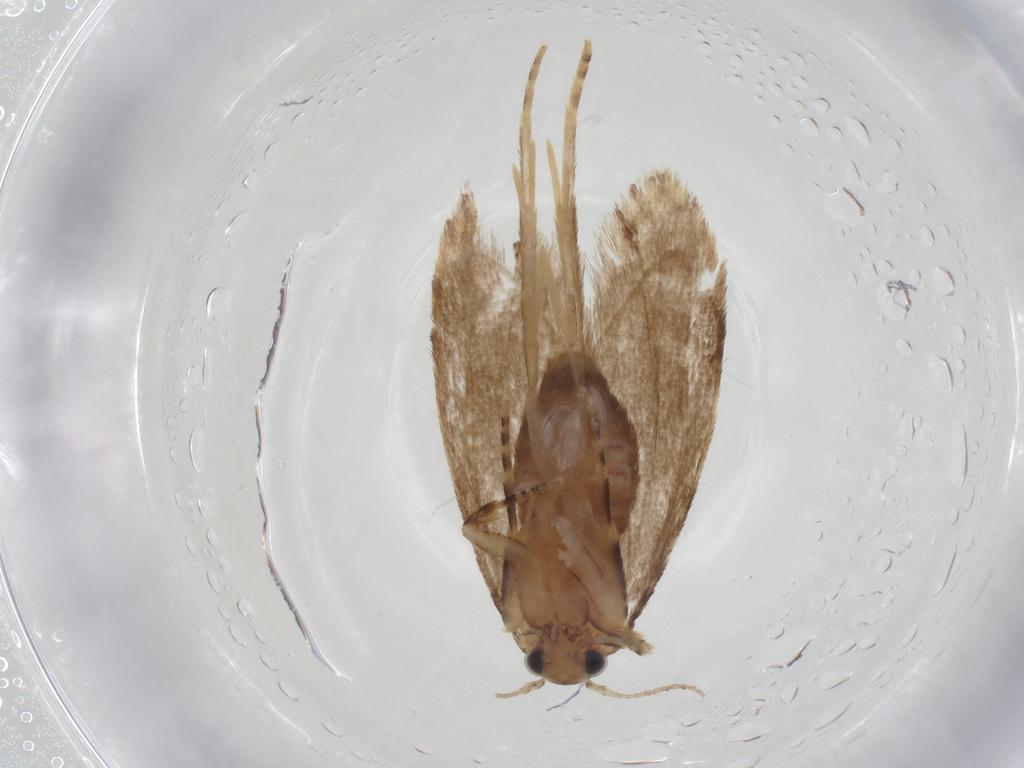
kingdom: Animalia
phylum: Arthropoda
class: Insecta
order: Lepidoptera
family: Tineidae
